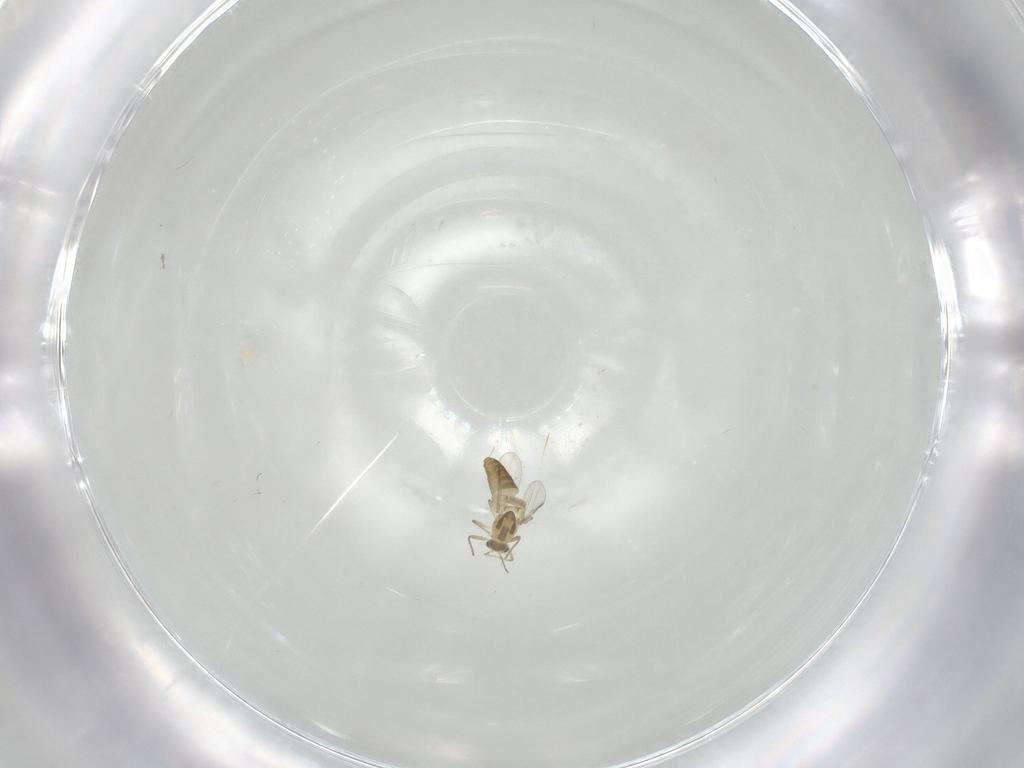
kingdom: Animalia
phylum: Arthropoda
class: Insecta
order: Diptera
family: Chironomidae
